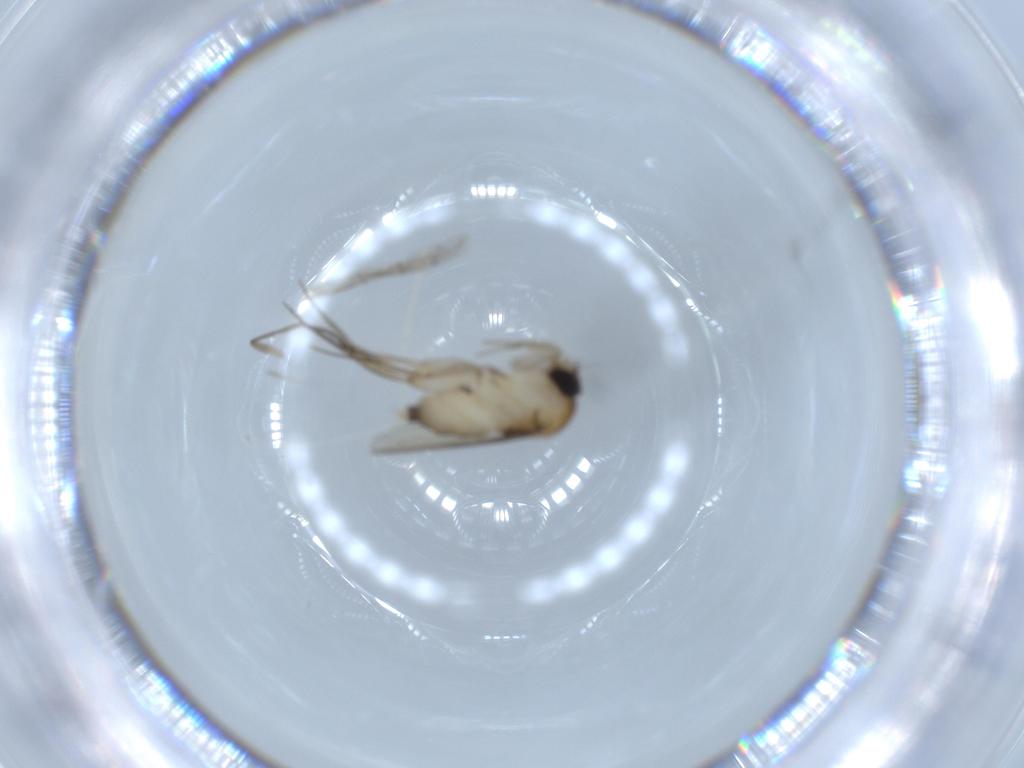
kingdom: Animalia
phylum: Arthropoda
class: Insecta
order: Diptera
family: Phoridae
